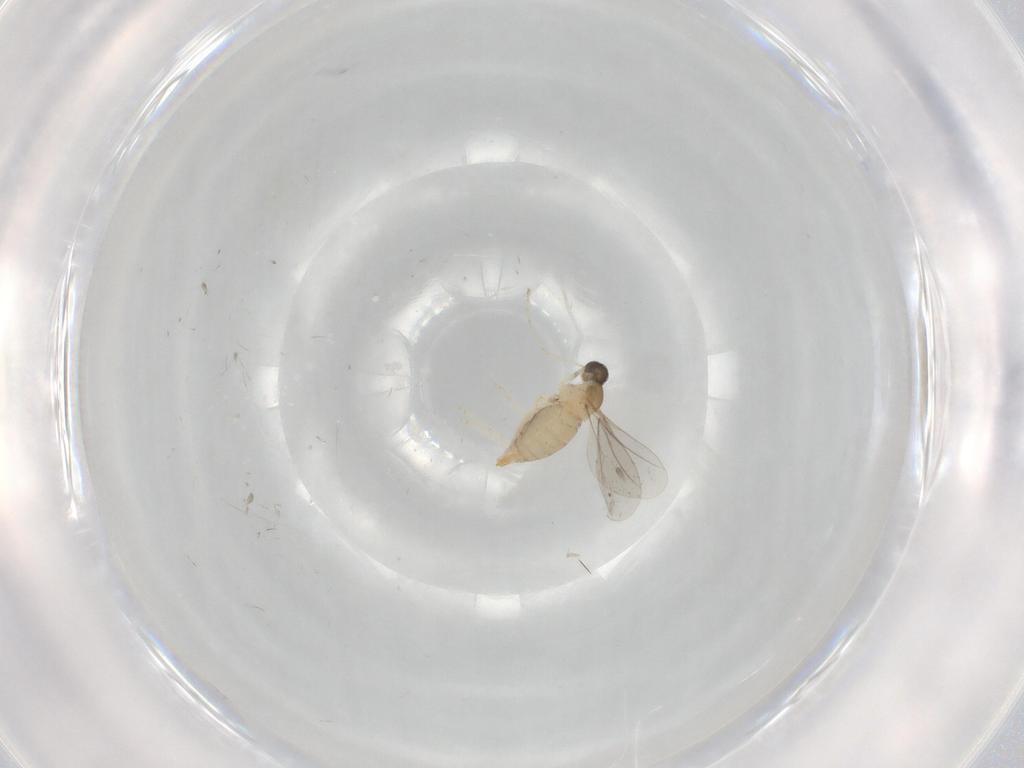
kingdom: Animalia
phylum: Arthropoda
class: Insecta
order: Diptera
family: Cecidomyiidae
